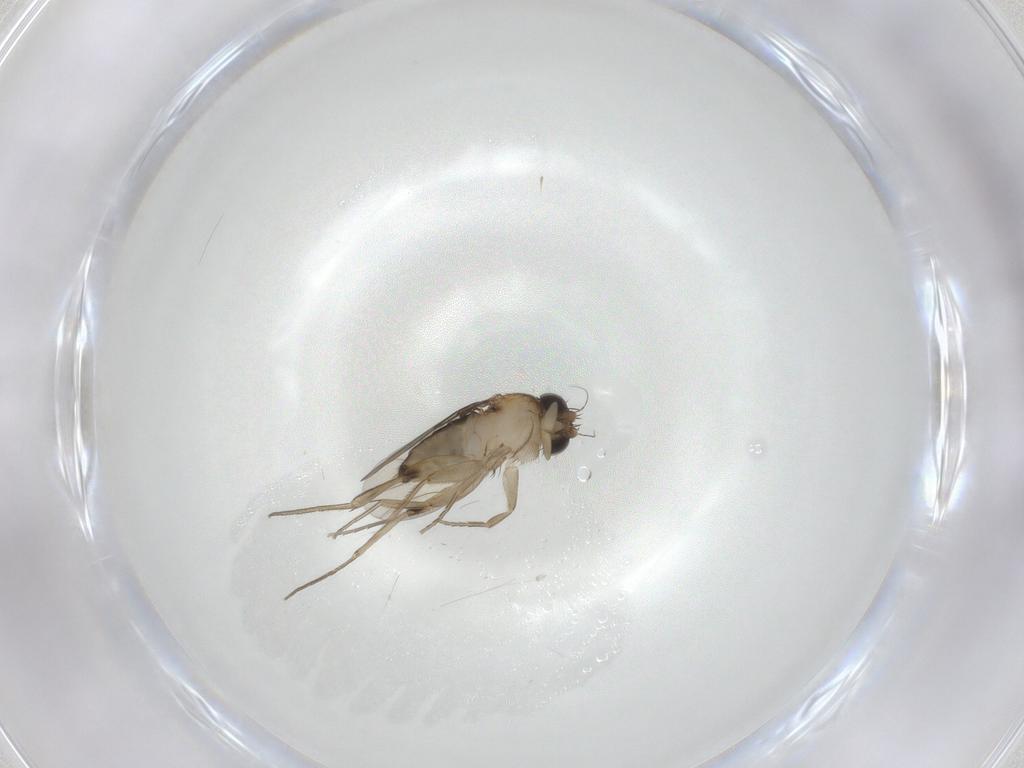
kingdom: Animalia
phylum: Arthropoda
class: Insecta
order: Diptera
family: Phoridae
